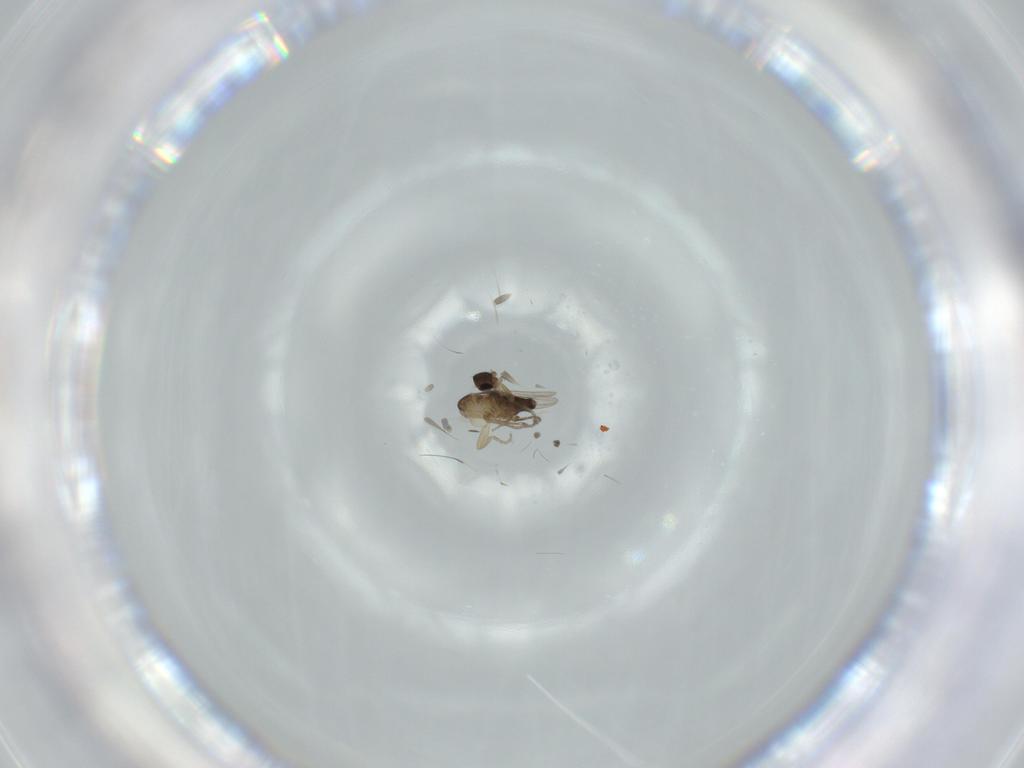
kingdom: Animalia
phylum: Arthropoda
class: Insecta
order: Diptera
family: Phoridae
